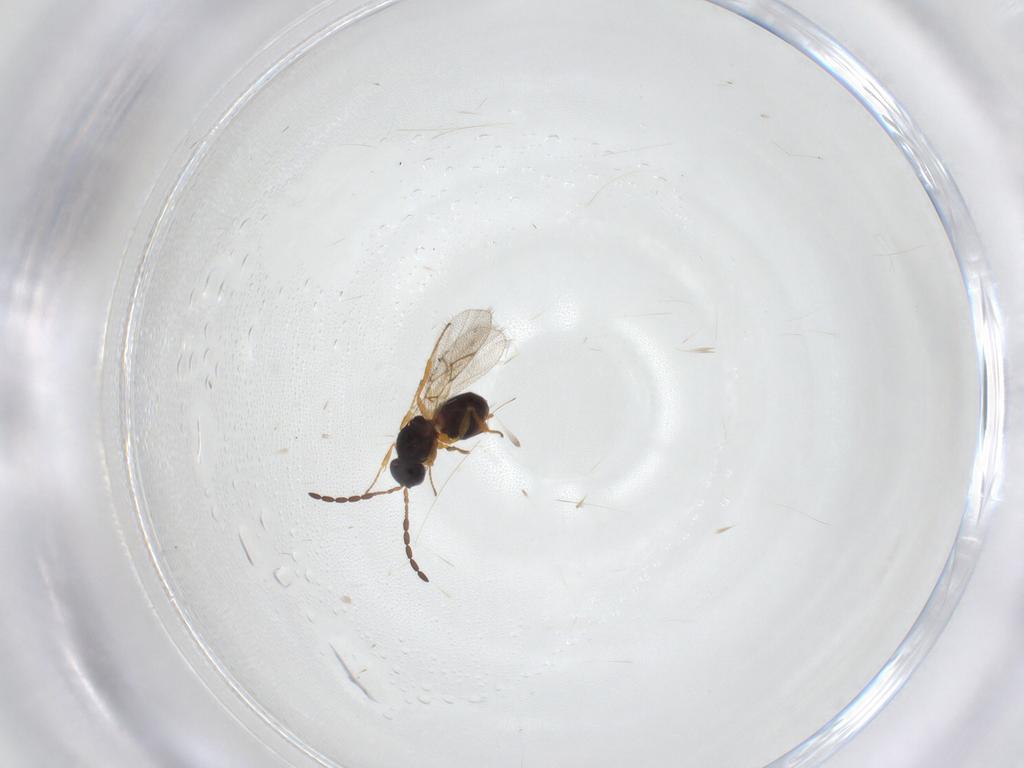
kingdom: Animalia
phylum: Arthropoda
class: Insecta
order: Hymenoptera
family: Figitidae
